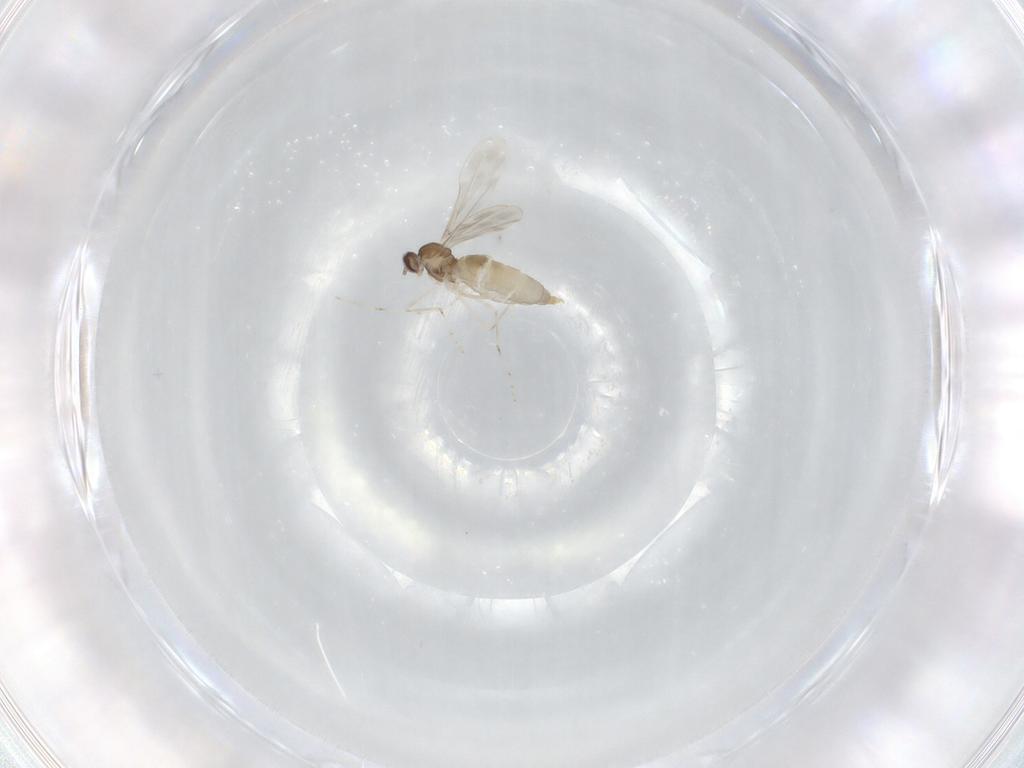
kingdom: Animalia
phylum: Arthropoda
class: Insecta
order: Diptera
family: Cecidomyiidae
